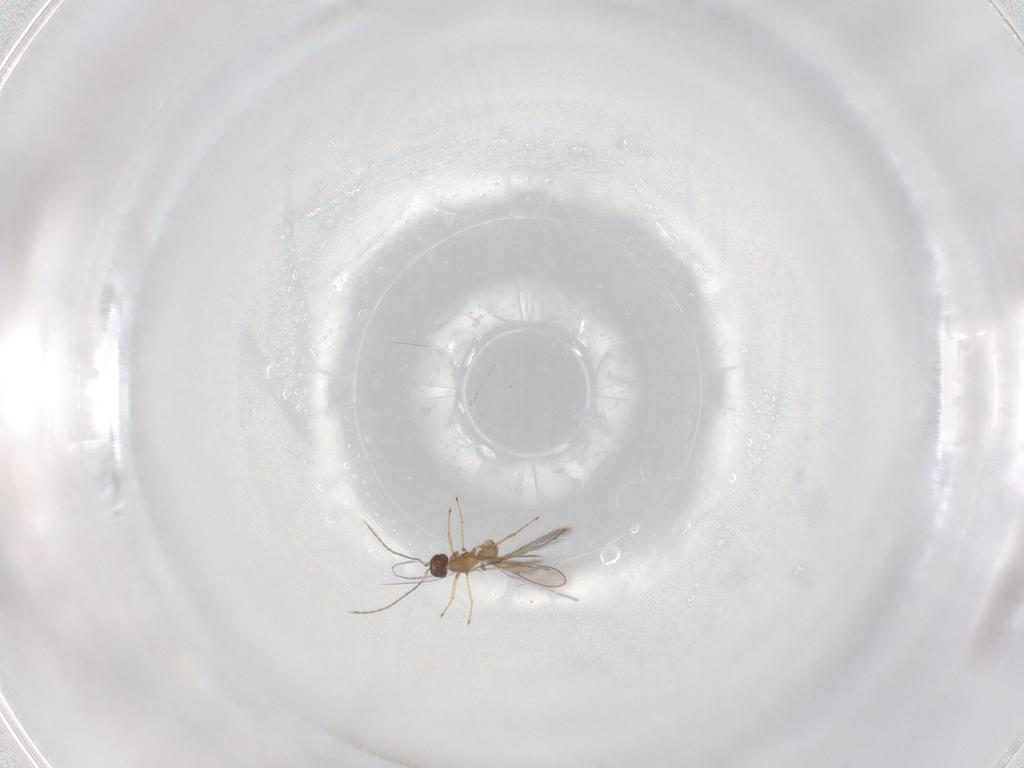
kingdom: Animalia
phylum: Arthropoda
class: Insecta
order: Hymenoptera
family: Mymaridae
